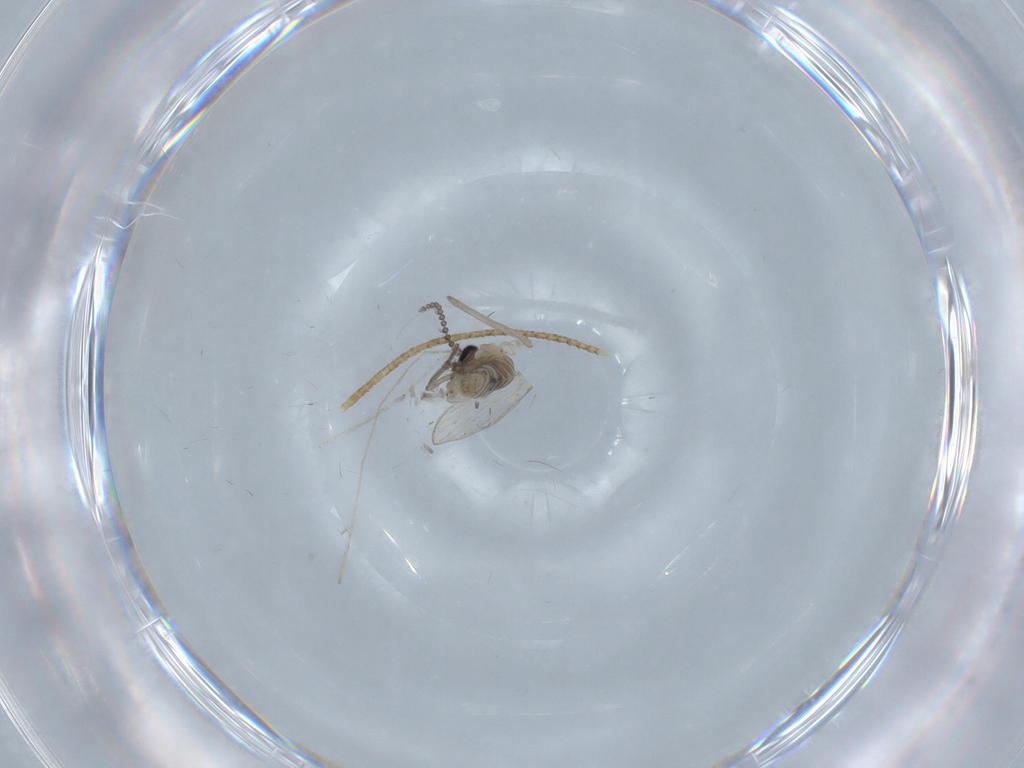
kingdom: Animalia
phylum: Arthropoda
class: Insecta
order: Diptera
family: Psychodidae
